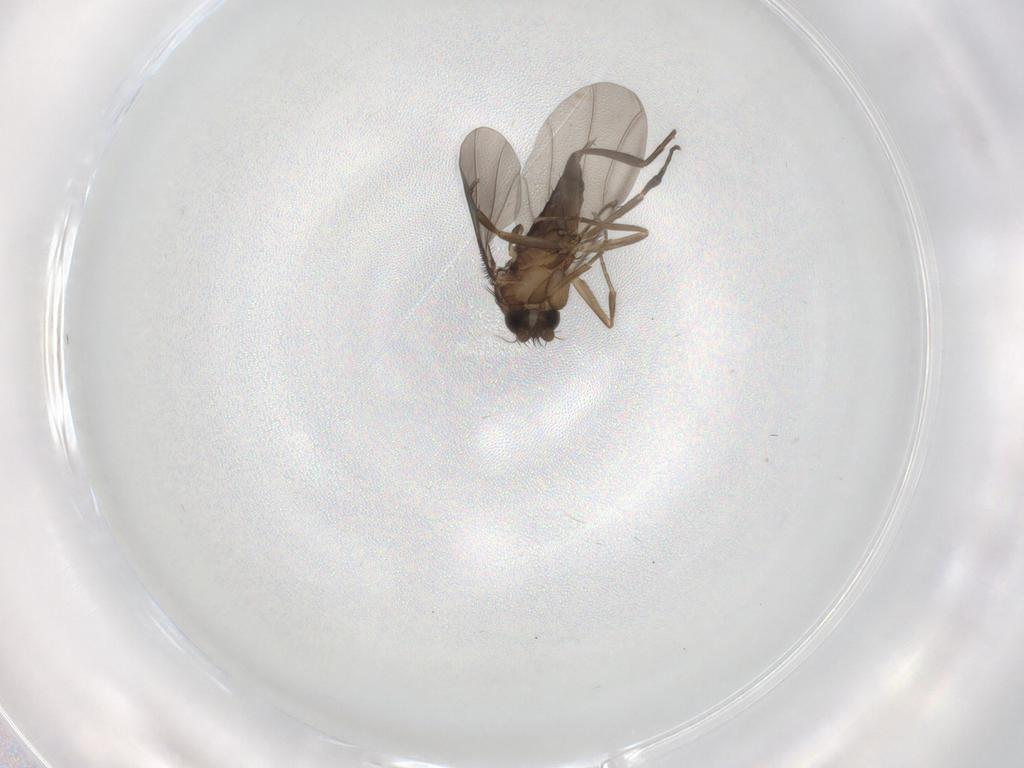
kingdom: Animalia
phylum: Arthropoda
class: Insecta
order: Diptera
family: Phoridae
